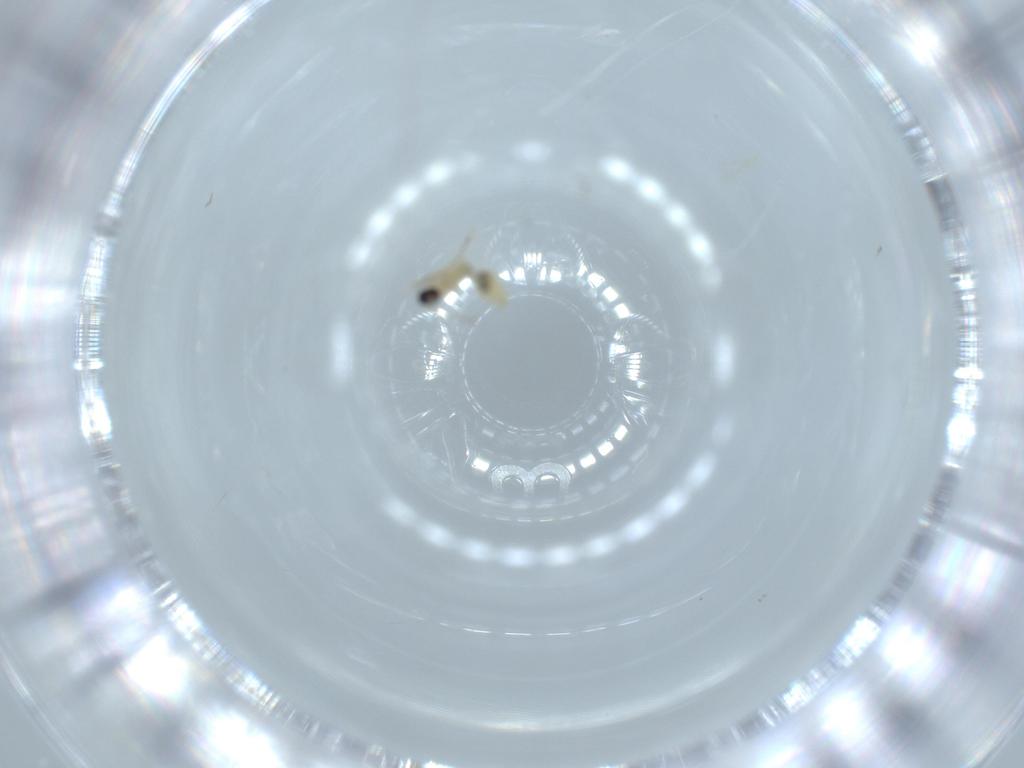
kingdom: Animalia
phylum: Arthropoda
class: Insecta
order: Diptera
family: Cecidomyiidae
